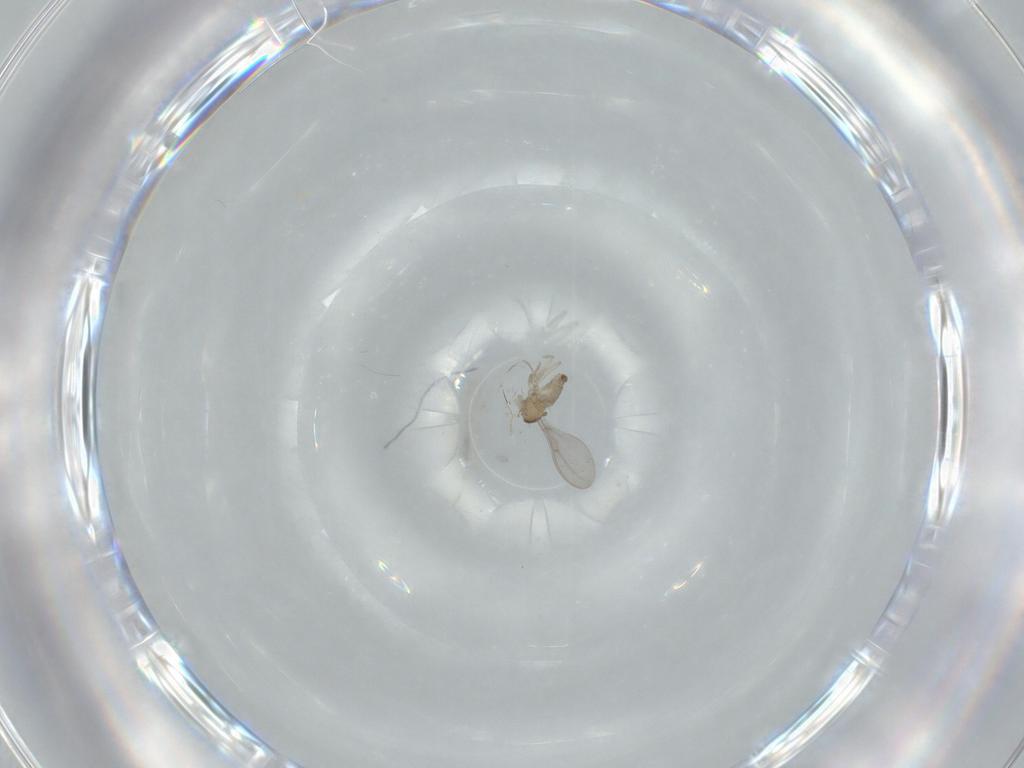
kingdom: Animalia
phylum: Arthropoda
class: Insecta
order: Diptera
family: Cecidomyiidae
